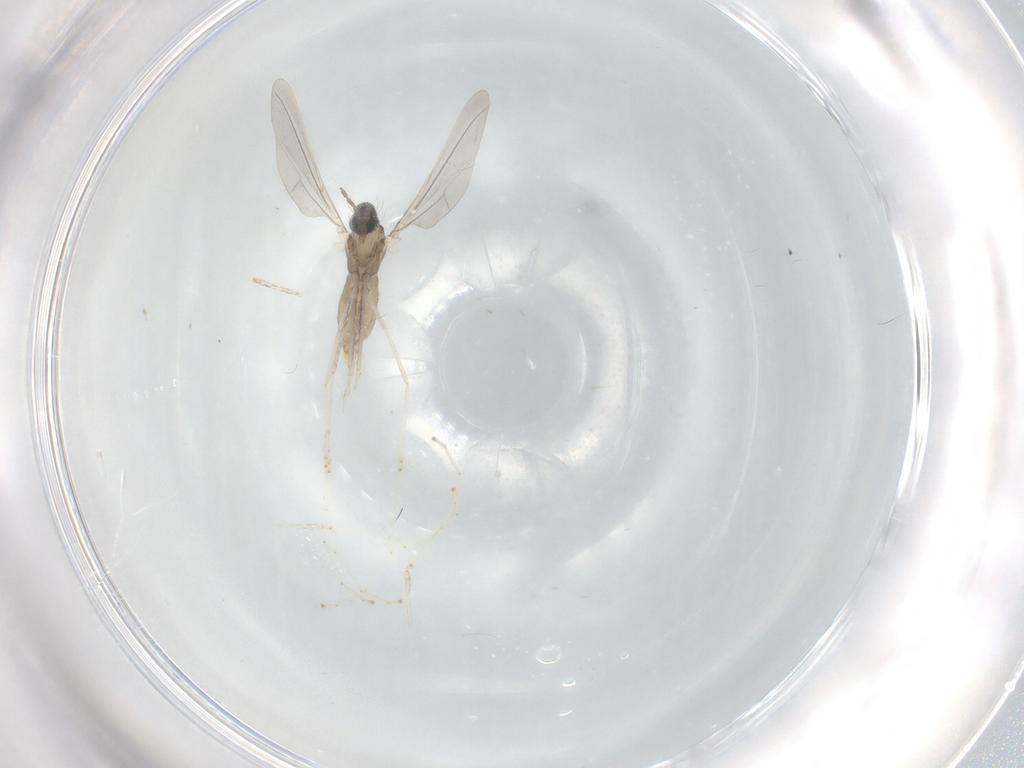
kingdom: Animalia
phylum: Arthropoda
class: Insecta
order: Diptera
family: Cecidomyiidae
